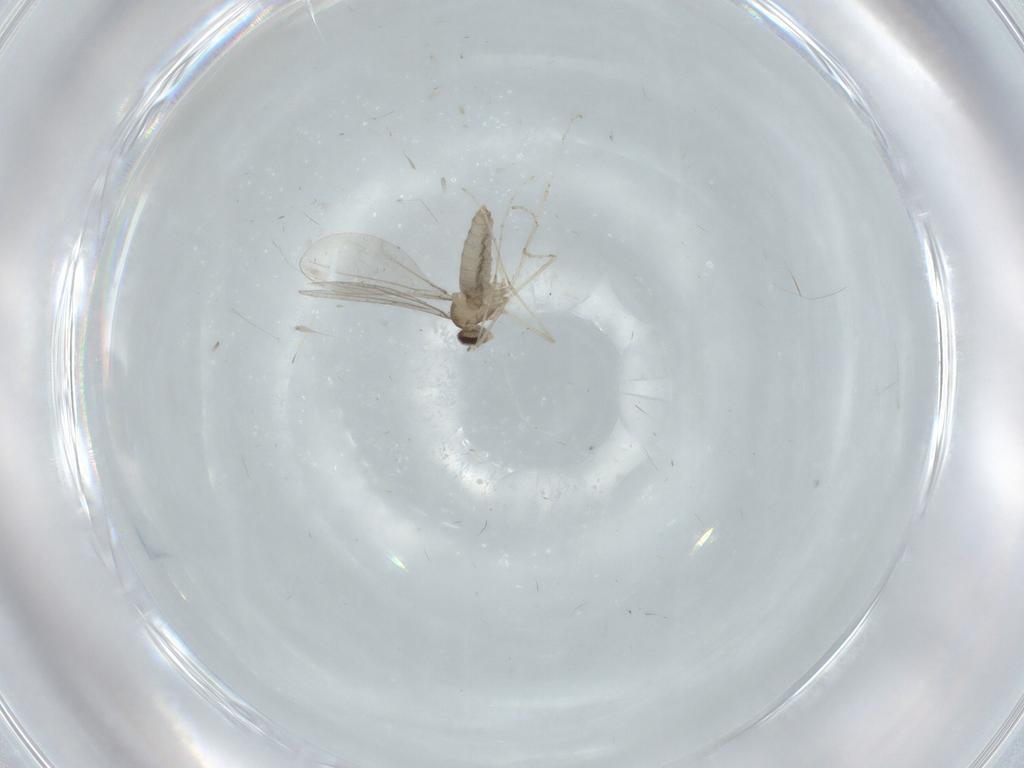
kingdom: Animalia
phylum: Arthropoda
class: Insecta
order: Diptera
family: Cecidomyiidae
